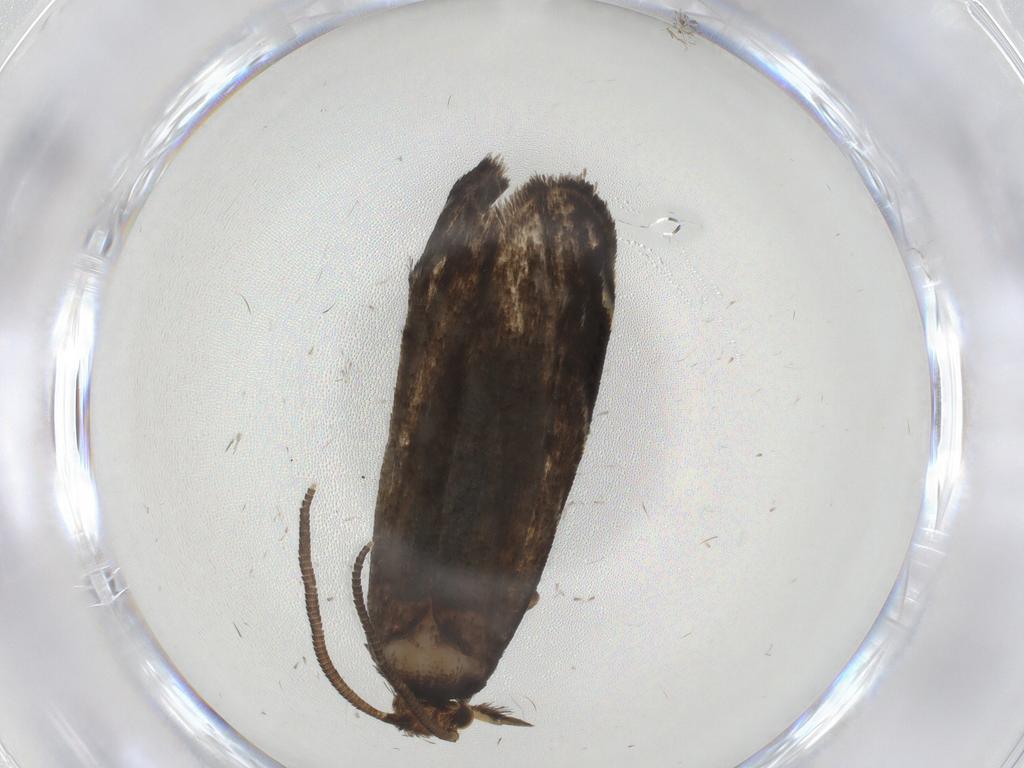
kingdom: Animalia
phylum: Arthropoda
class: Insecta
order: Lepidoptera
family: Dryadaulidae
